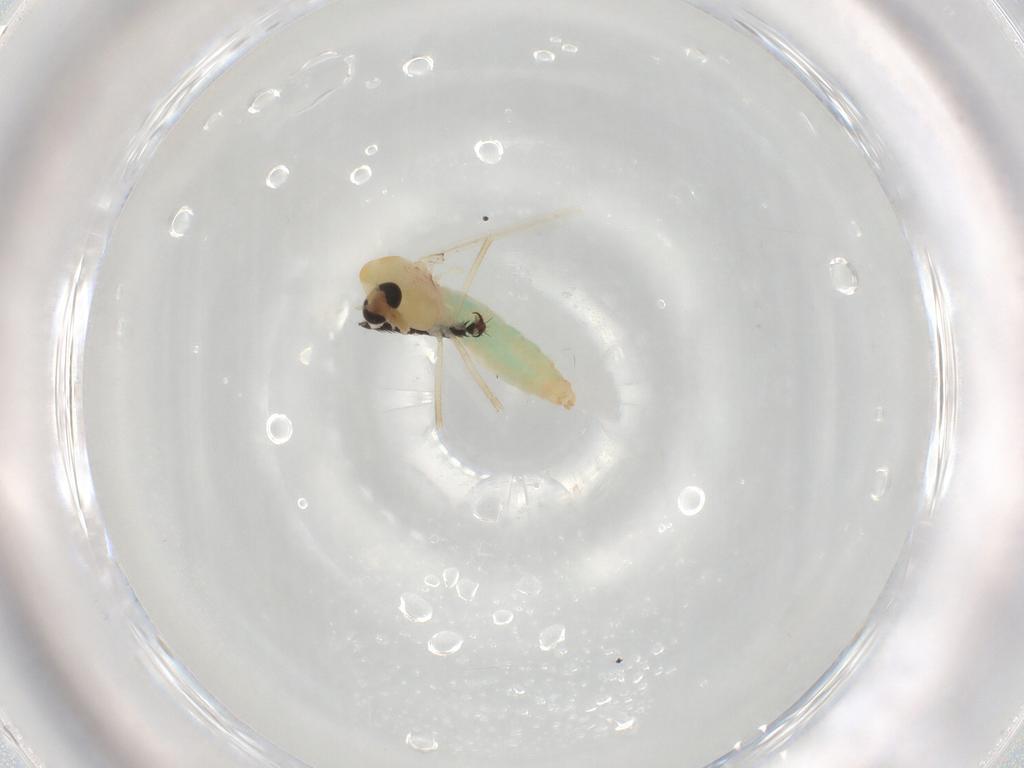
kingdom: Animalia
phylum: Arthropoda
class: Insecta
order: Diptera
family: Chironomidae
